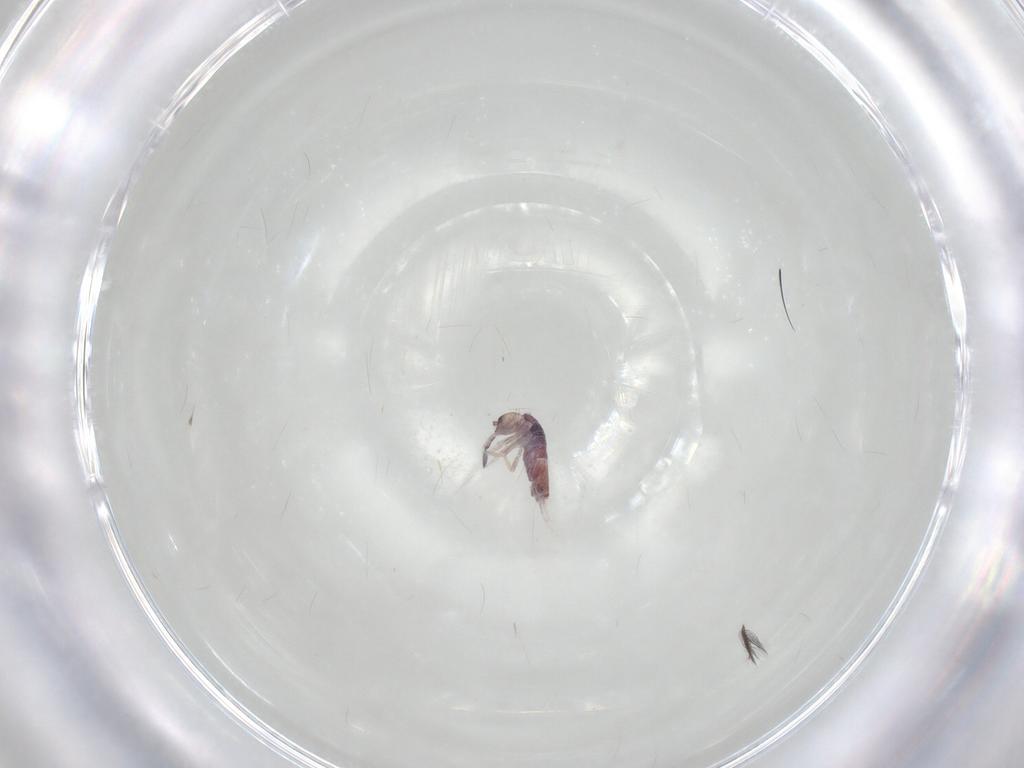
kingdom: Animalia
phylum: Arthropoda
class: Collembola
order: Entomobryomorpha
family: Entomobryidae
